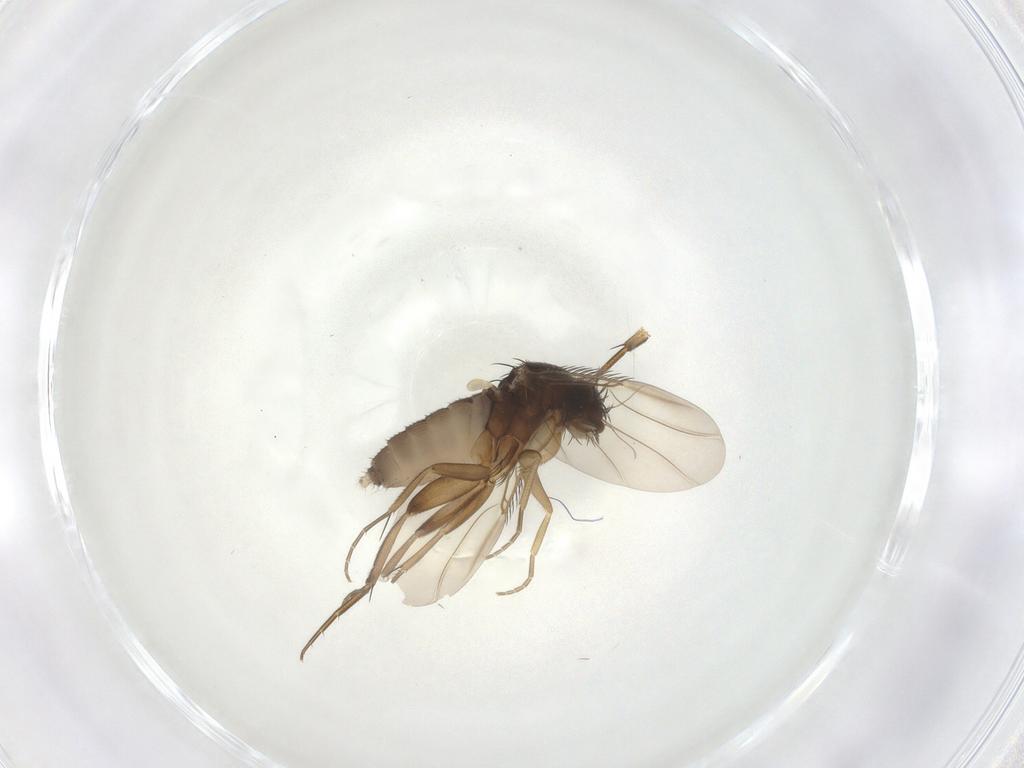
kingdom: Animalia
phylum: Arthropoda
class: Insecta
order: Diptera
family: Phoridae
